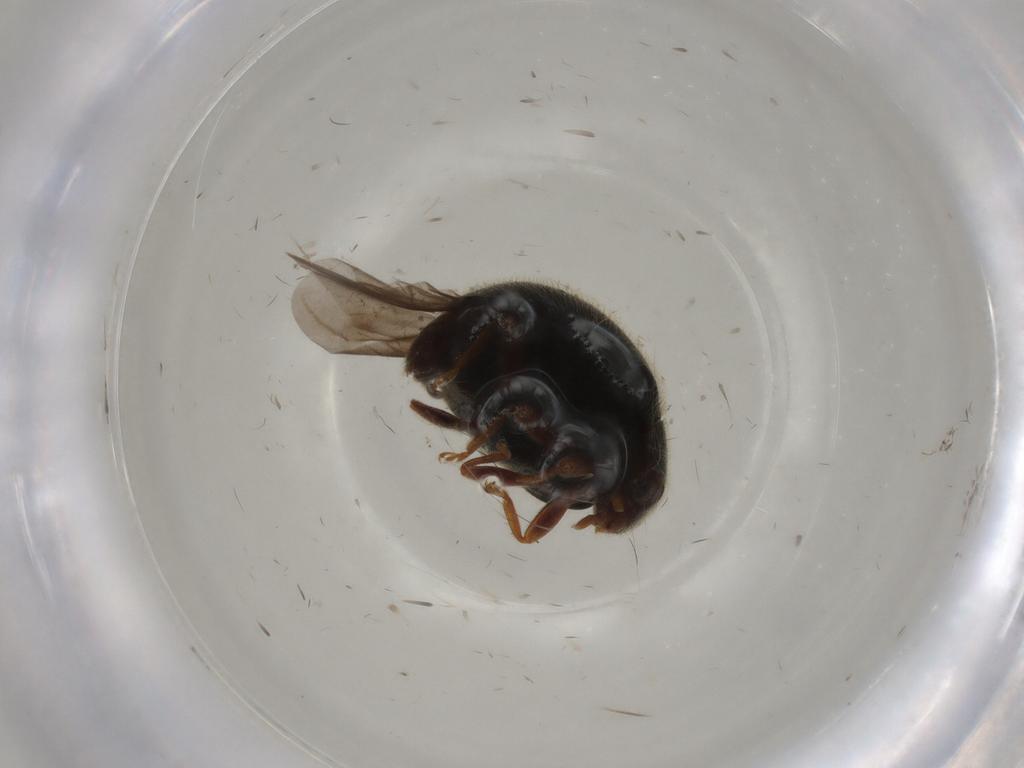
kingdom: Animalia
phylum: Arthropoda
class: Insecta
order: Coleoptera
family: Coccinellidae
